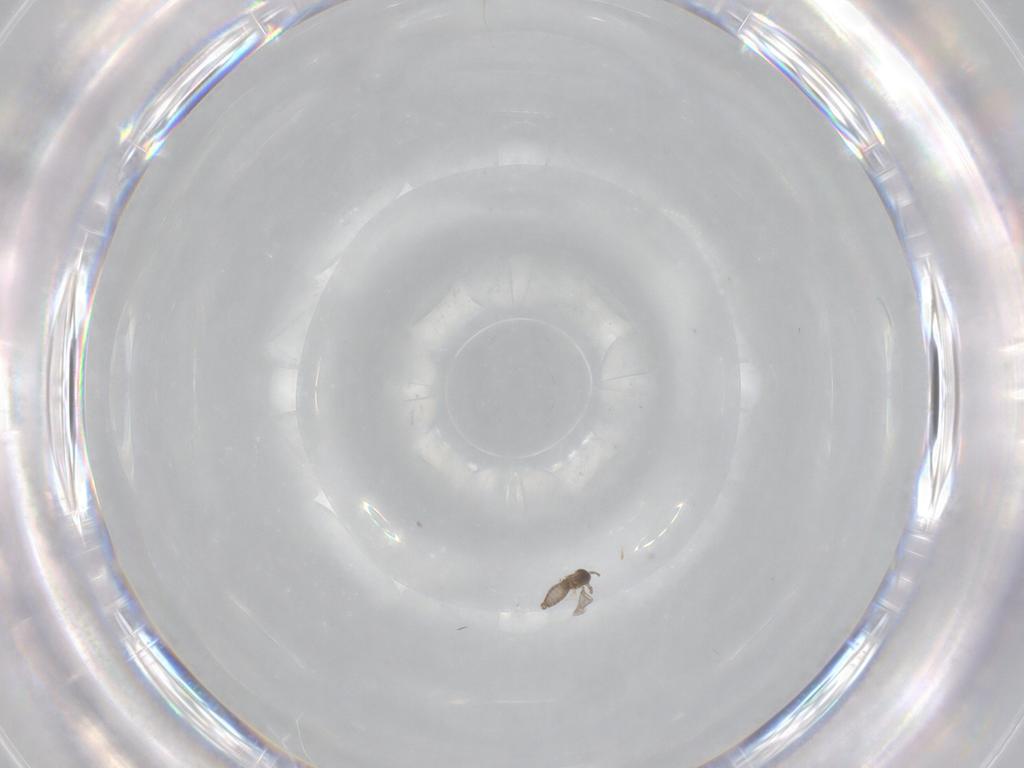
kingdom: Animalia
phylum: Arthropoda
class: Insecta
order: Diptera
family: Cecidomyiidae
